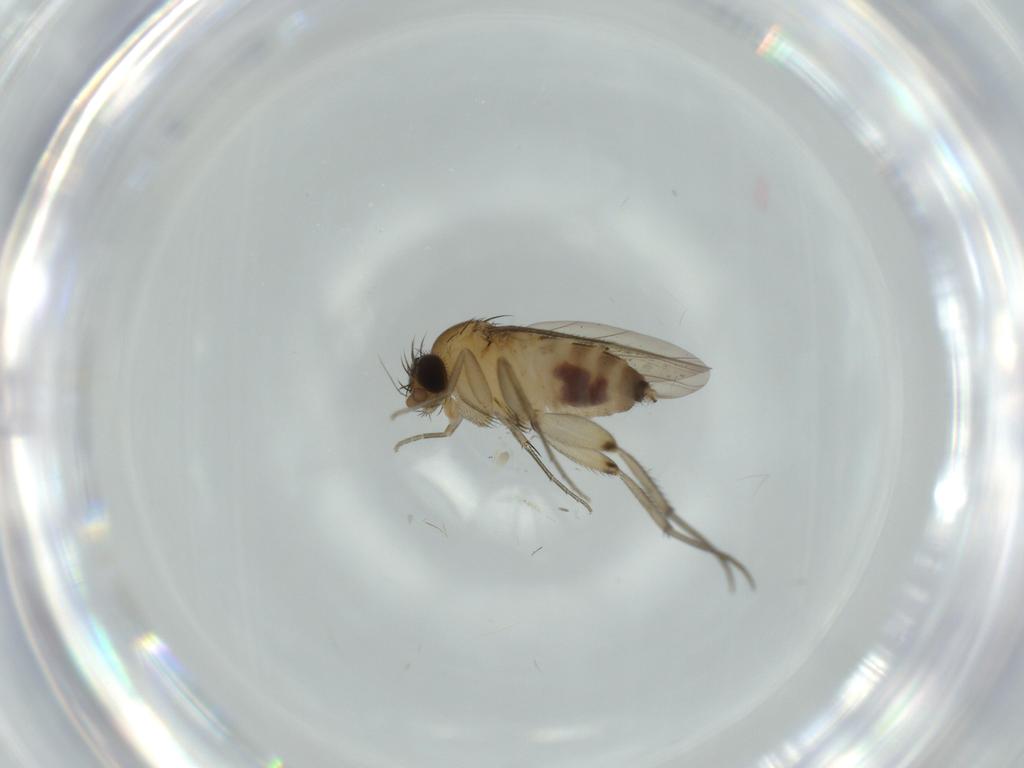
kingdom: Animalia
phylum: Arthropoda
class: Insecta
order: Diptera
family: Phoridae
